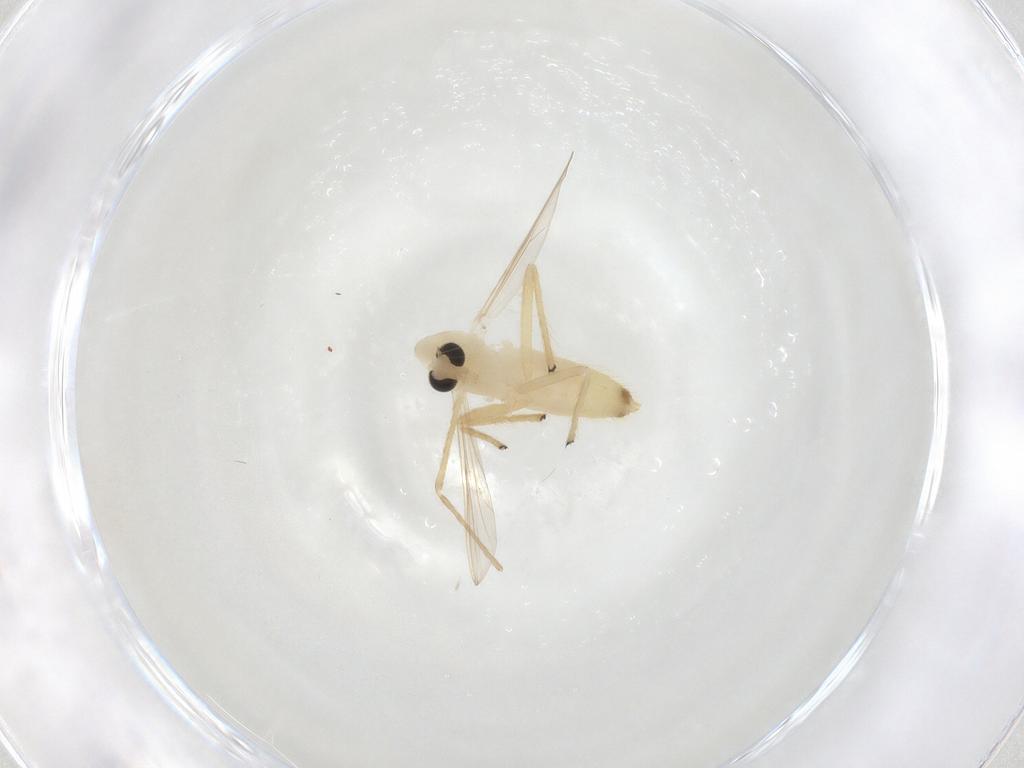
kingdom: Animalia
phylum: Arthropoda
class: Insecta
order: Diptera
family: Chironomidae
